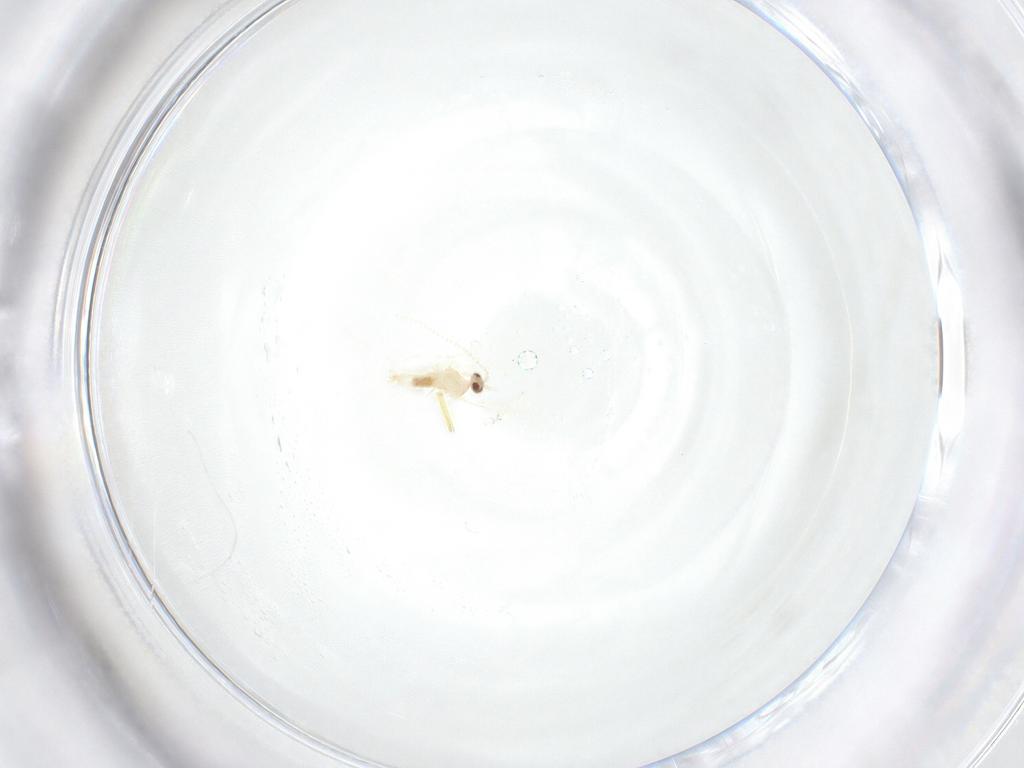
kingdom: Animalia
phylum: Arthropoda
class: Insecta
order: Diptera
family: Cecidomyiidae
